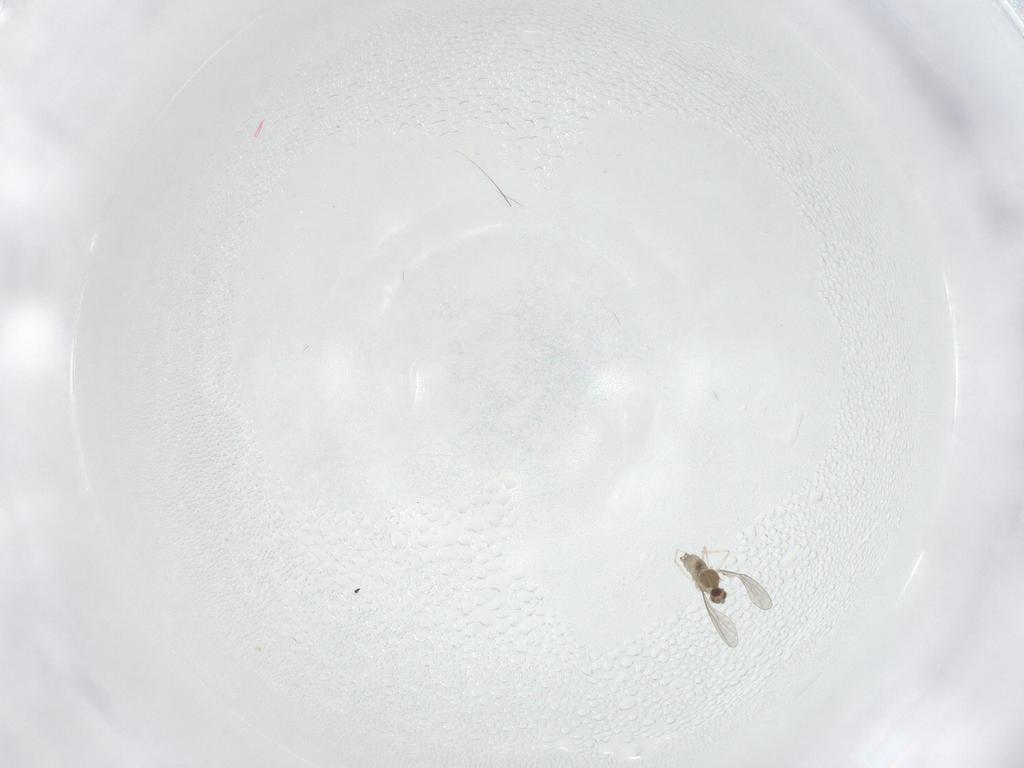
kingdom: Animalia
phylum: Arthropoda
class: Insecta
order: Diptera
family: Cecidomyiidae
